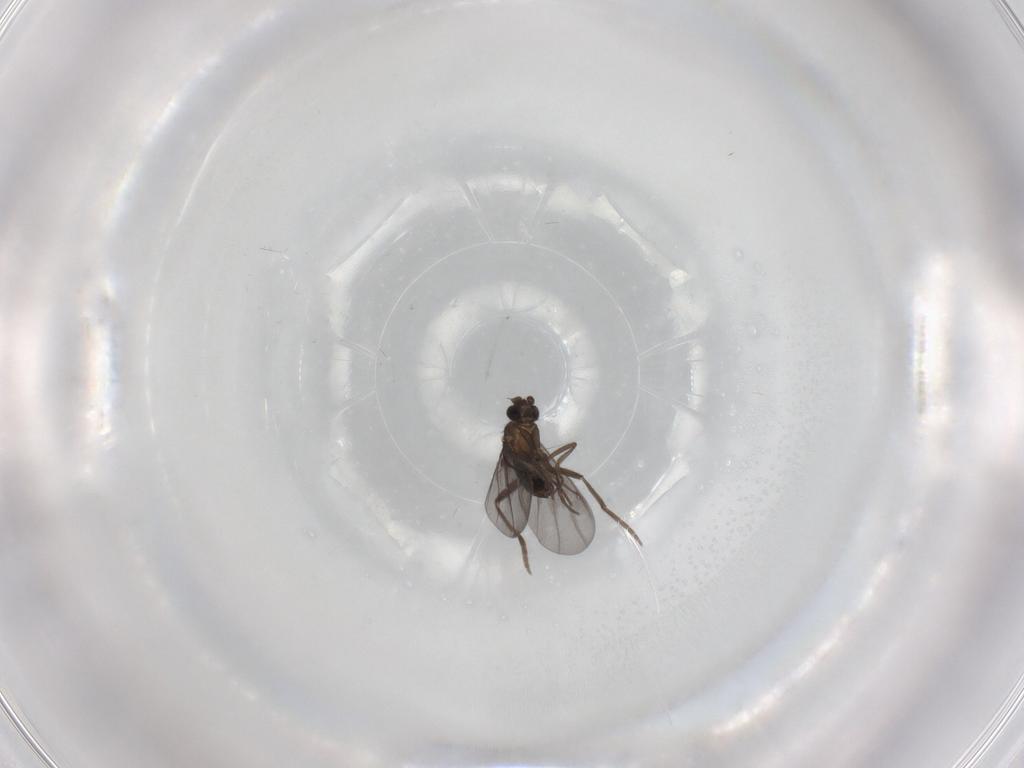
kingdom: Animalia
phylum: Arthropoda
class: Insecta
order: Diptera
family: Phoridae
